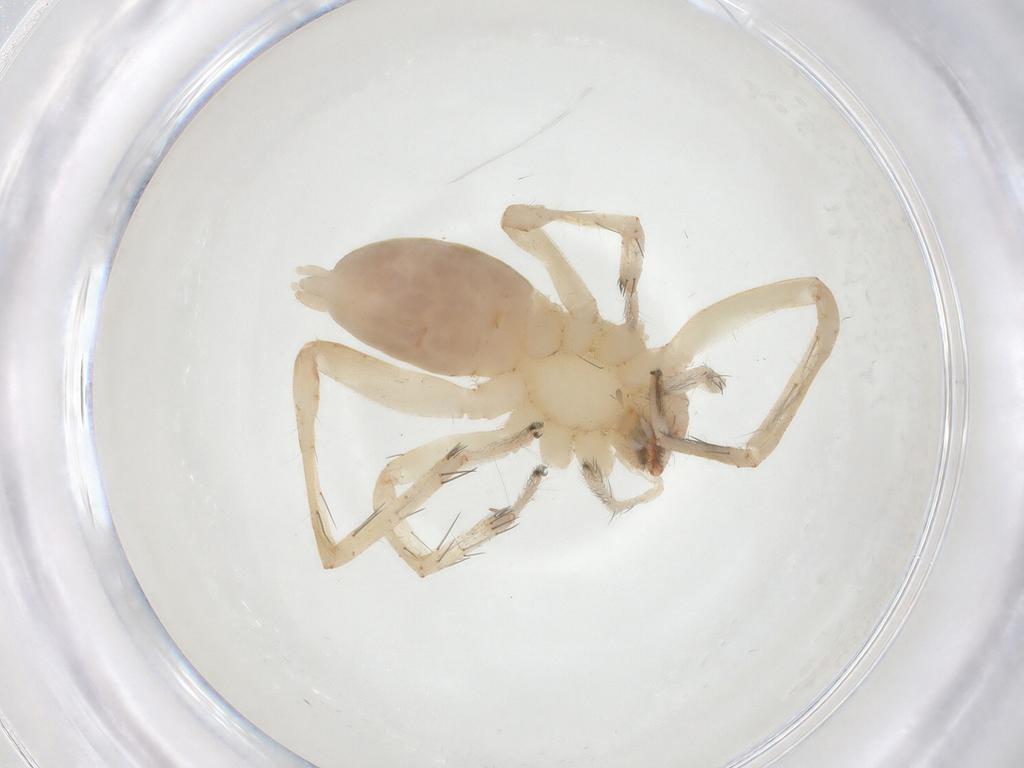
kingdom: Animalia
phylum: Arthropoda
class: Arachnida
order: Araneae
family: Anyphaenidae
